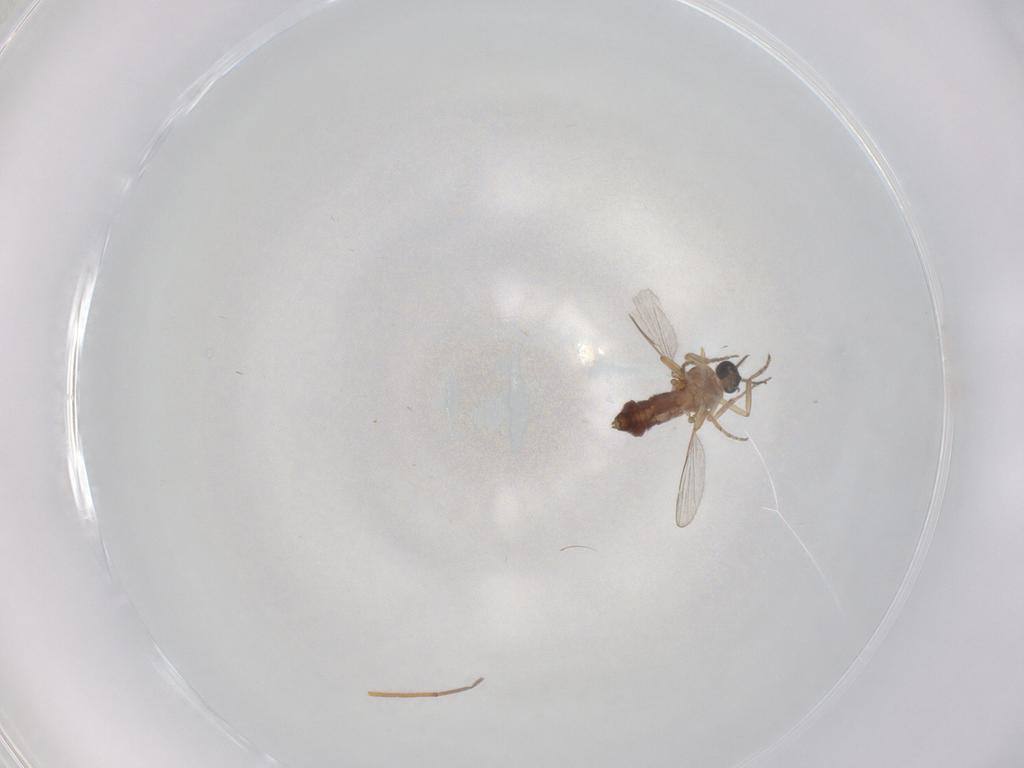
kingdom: Animalia
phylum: Arthropoda
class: Insecta
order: Diptera
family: Ceratopogonidae
